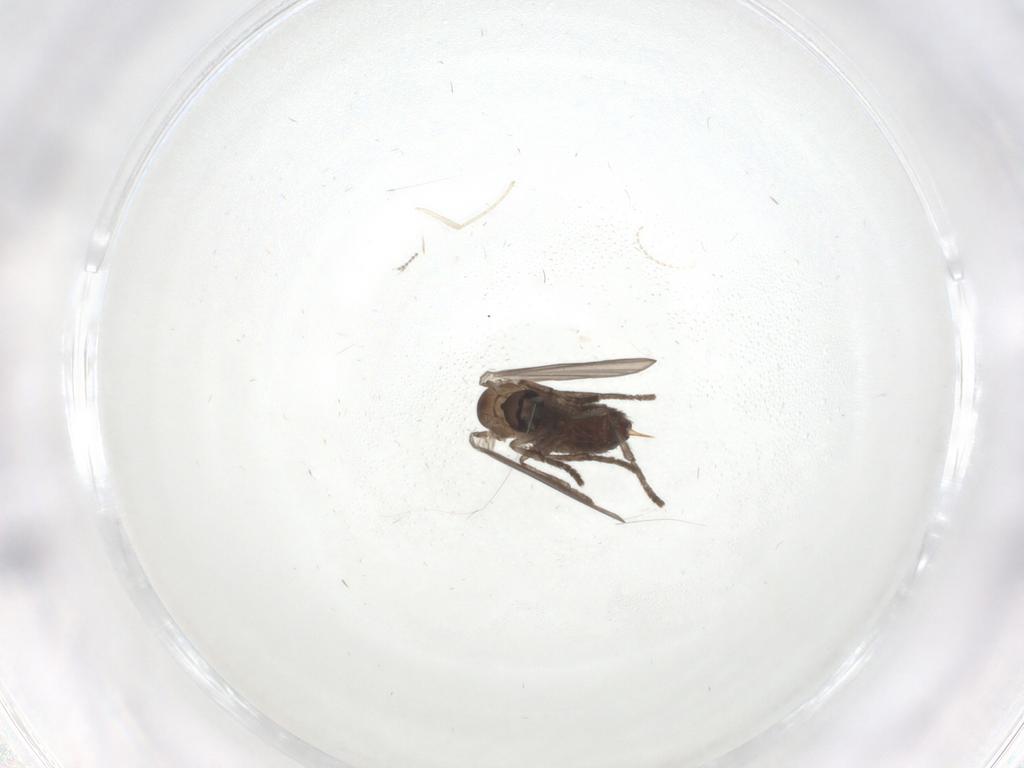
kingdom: Animalia
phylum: Arthropoda
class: Insecta
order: Diptera
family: Psychodidae
